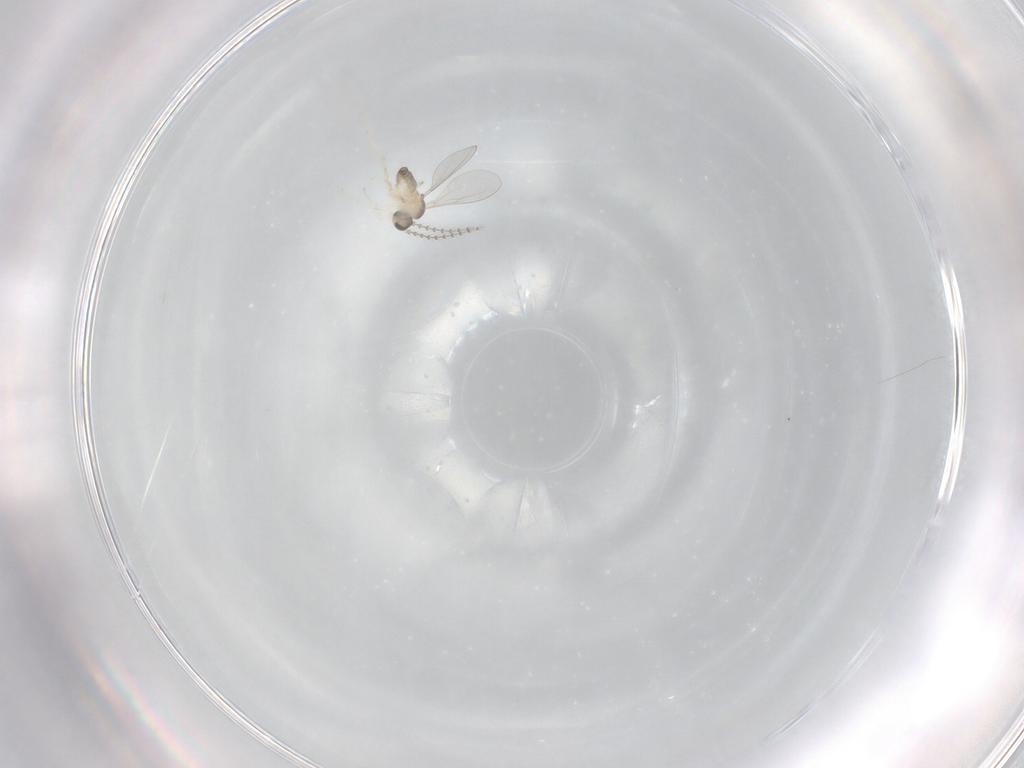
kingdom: Animalia
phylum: Arthropoda
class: Insecta
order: Diptera
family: Cecidomyiidae
